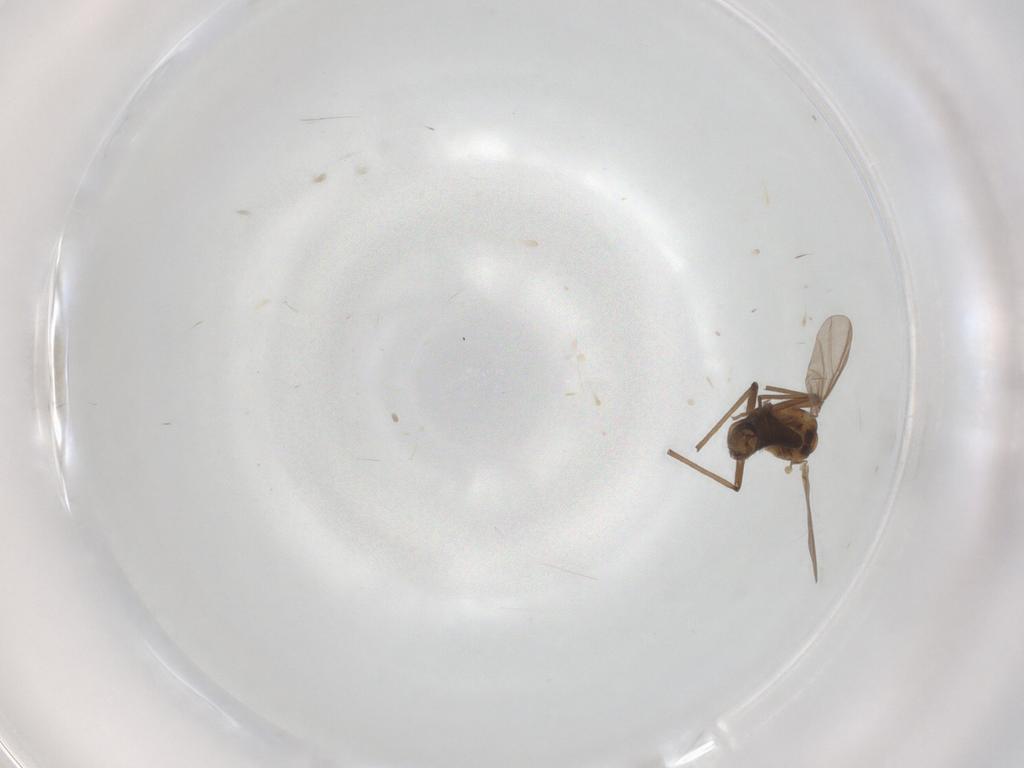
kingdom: Animalia
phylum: Arthropoda
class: Insecta
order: Diptera
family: Chironomidae
